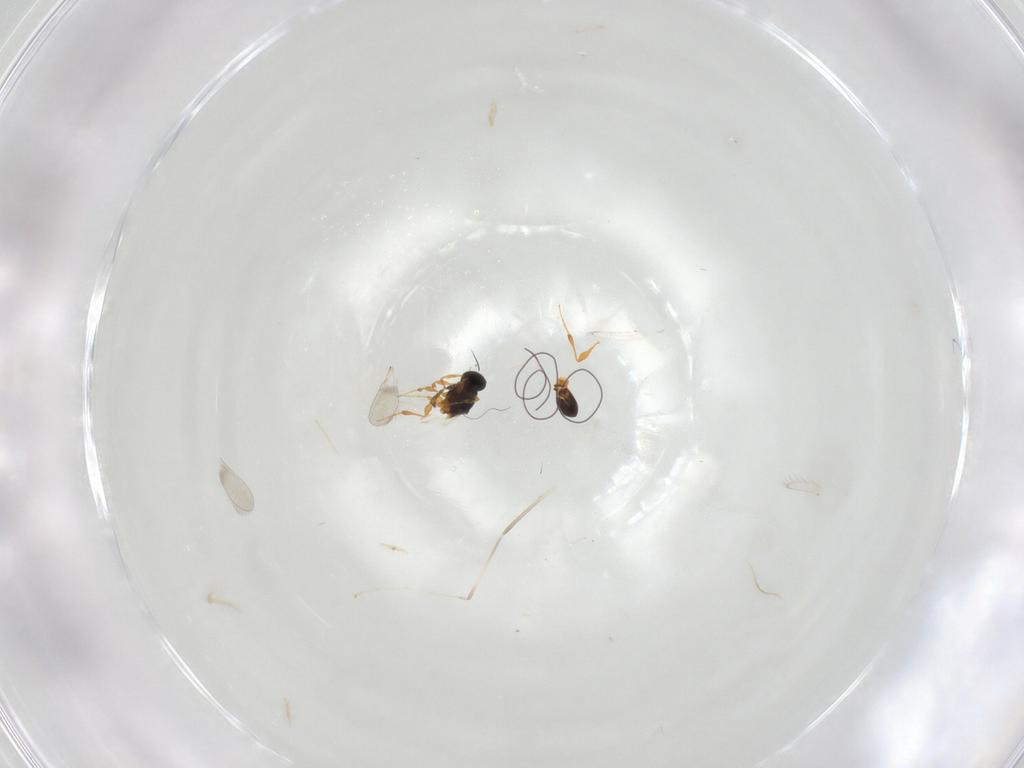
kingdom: Animalia
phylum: Arthropoda
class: Insecta
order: Hymenoptera
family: Platygastridae
